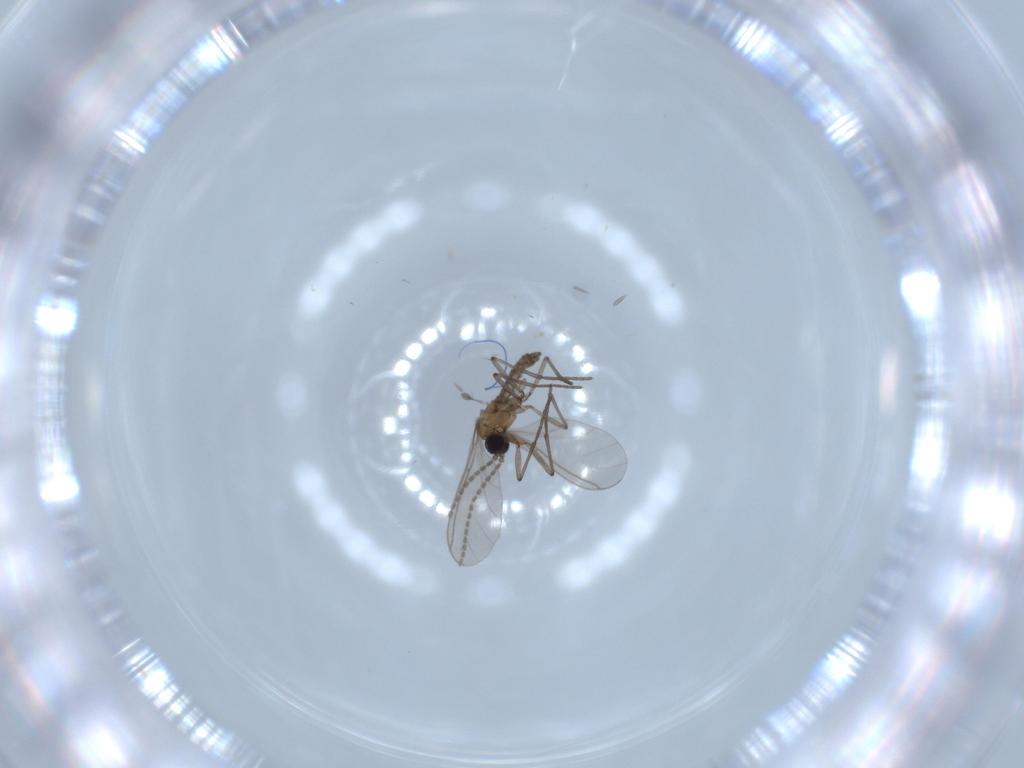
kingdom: Animalia
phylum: Arthropoda
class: Insecta
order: Diptera
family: Sciaridae
